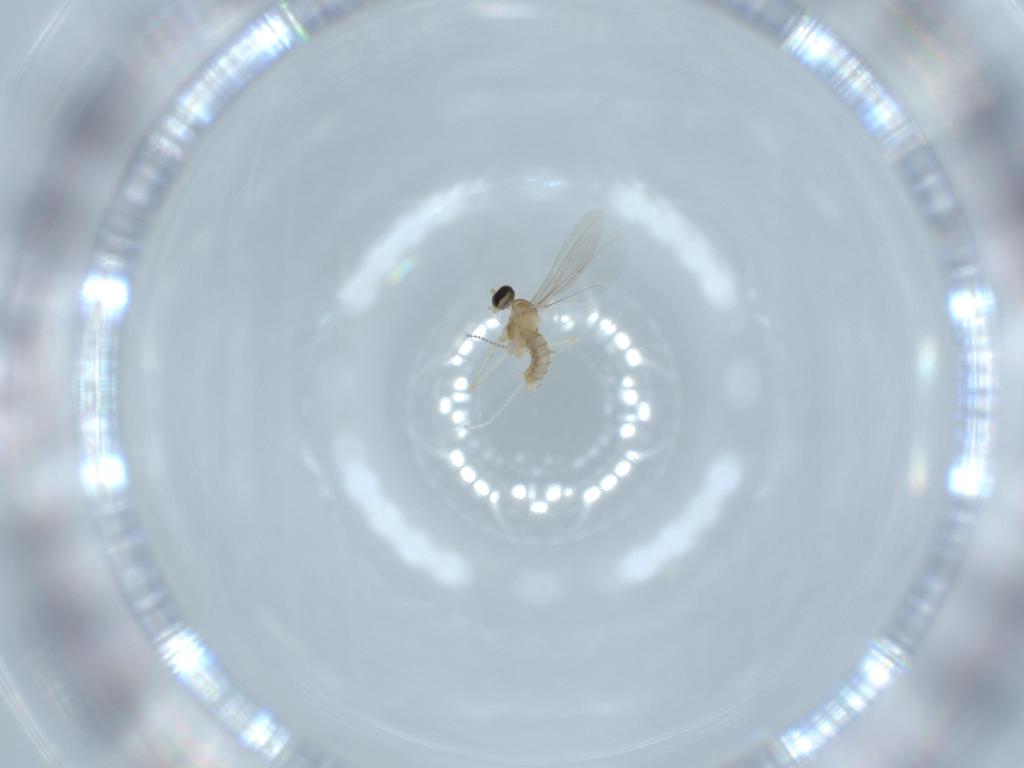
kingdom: Animalia
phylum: Arthropoda
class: Insecta
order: Diptera
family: Cecidomyiidae
